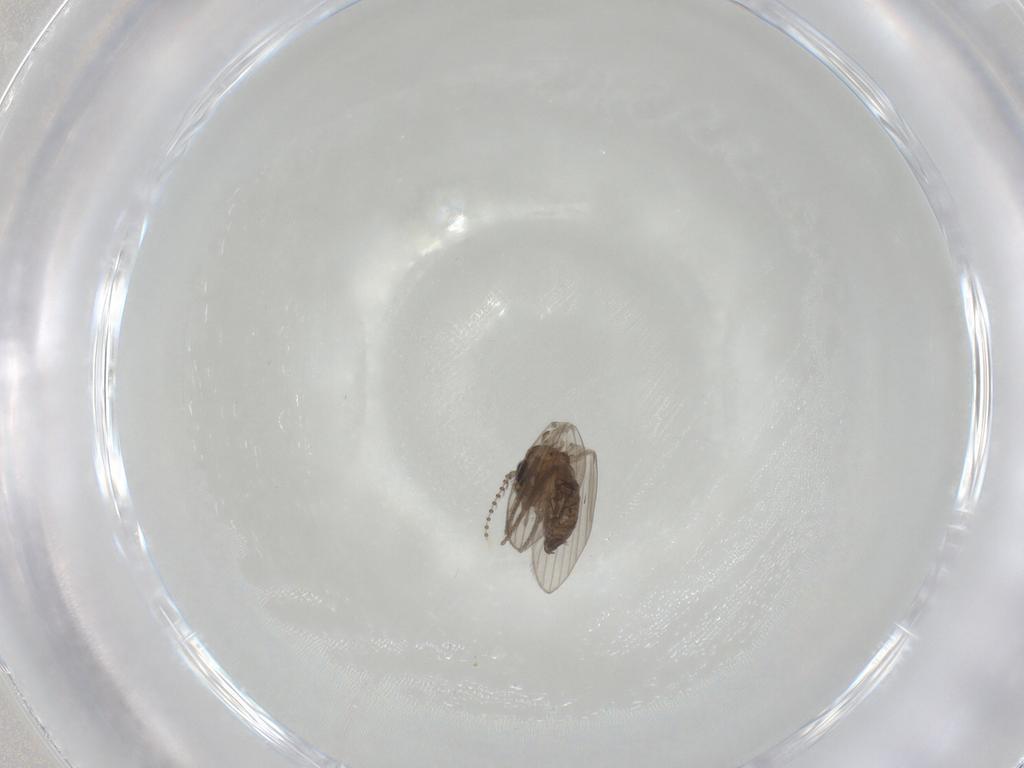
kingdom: Animalia
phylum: Arthropoda
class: Insecta
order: Diptera
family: Psychodidae
